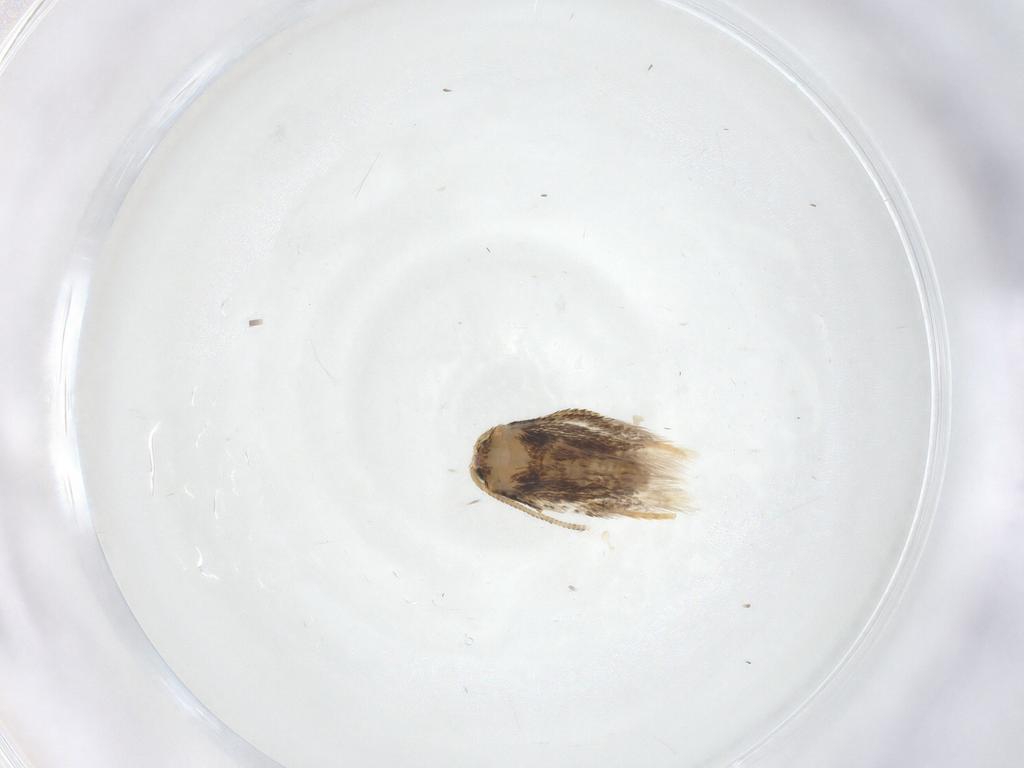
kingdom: Animalia
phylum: Arthropoda
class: Insecta
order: Lepidoptera
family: Nepticulidae
